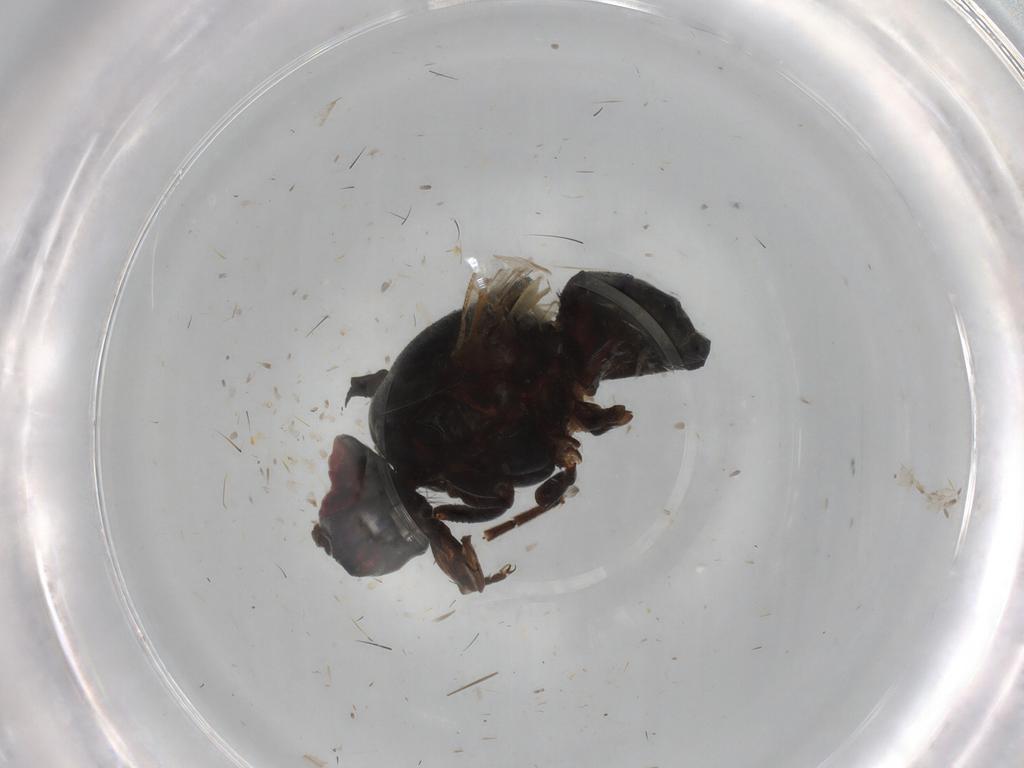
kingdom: Animalia
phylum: Arthropoda
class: Insecta
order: Diptera
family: Muscidae
